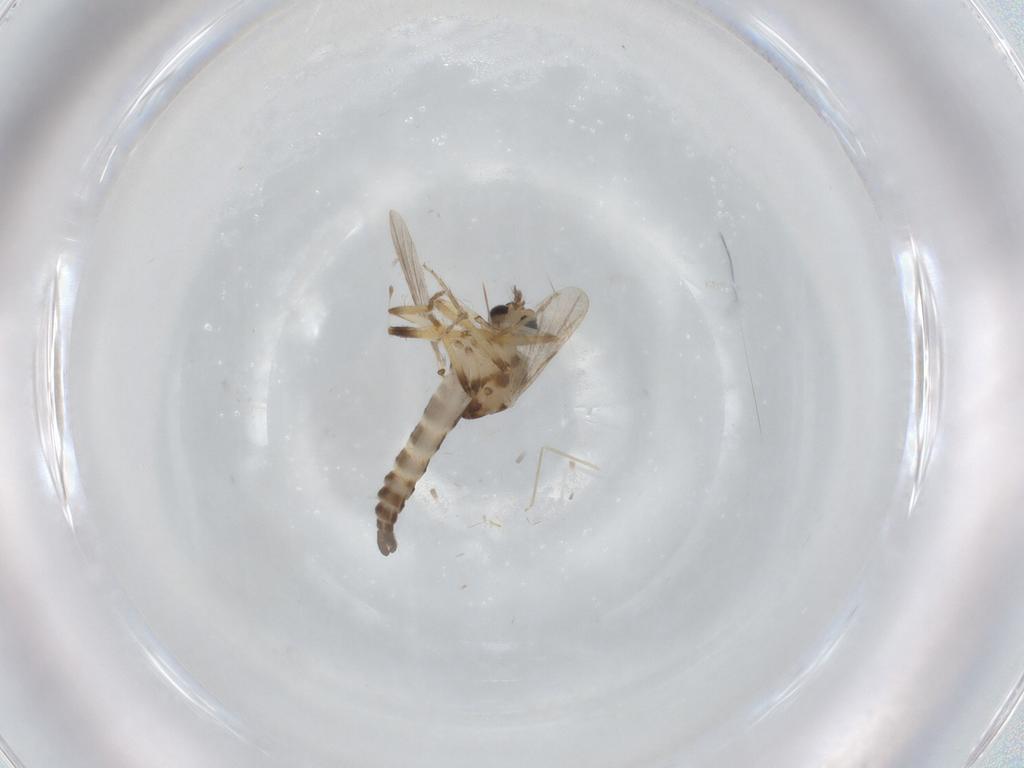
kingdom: Animalia
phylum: Arthropoda
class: Insecta
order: Diptera
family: Ceratopogonidae
